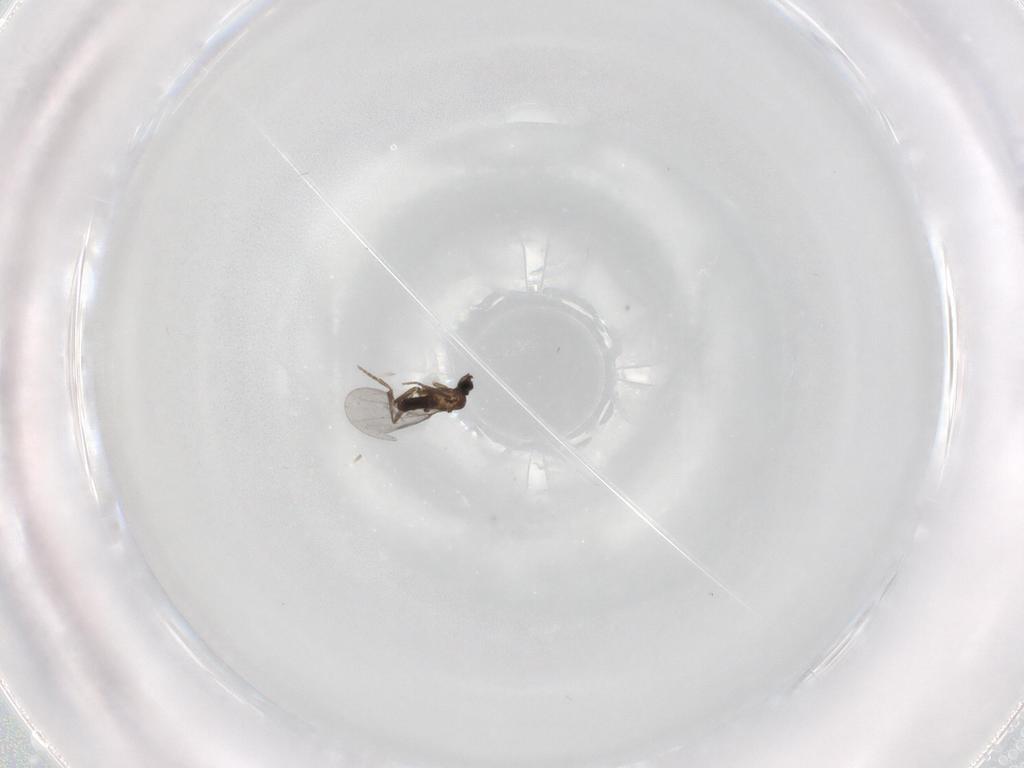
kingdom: Animalia
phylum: Arthropoda
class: Insecta
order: Diptera
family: Phoridae
